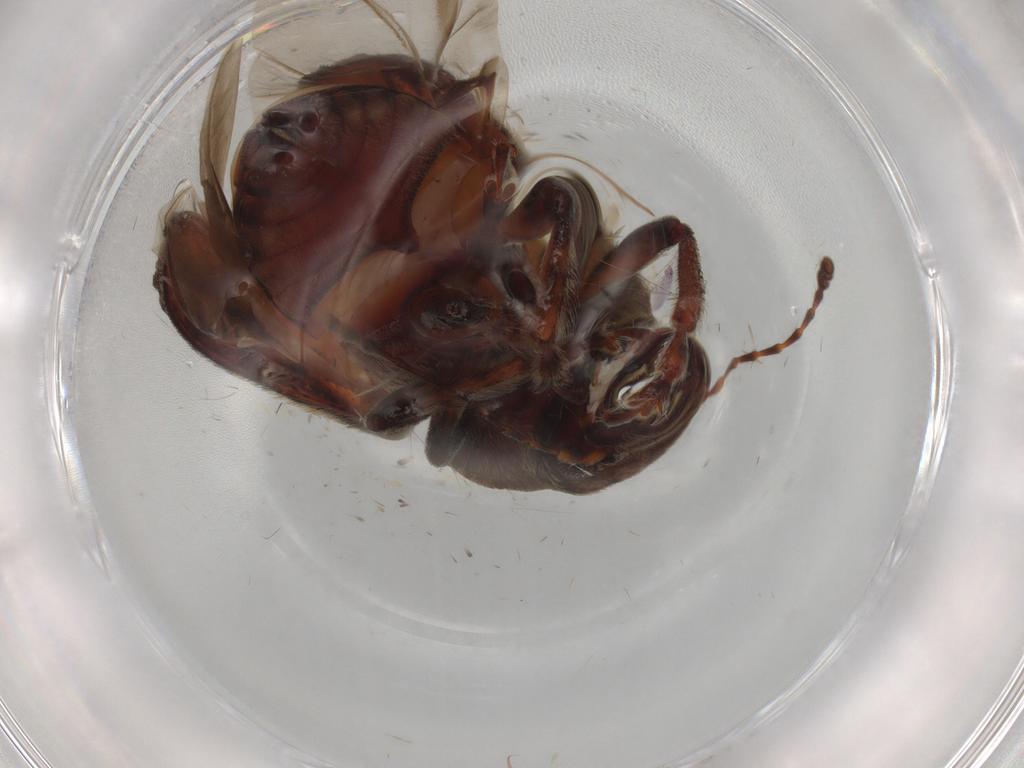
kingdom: Animalia
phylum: Arthropoda
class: Insecta
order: Coleoptera
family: Anthribidae
